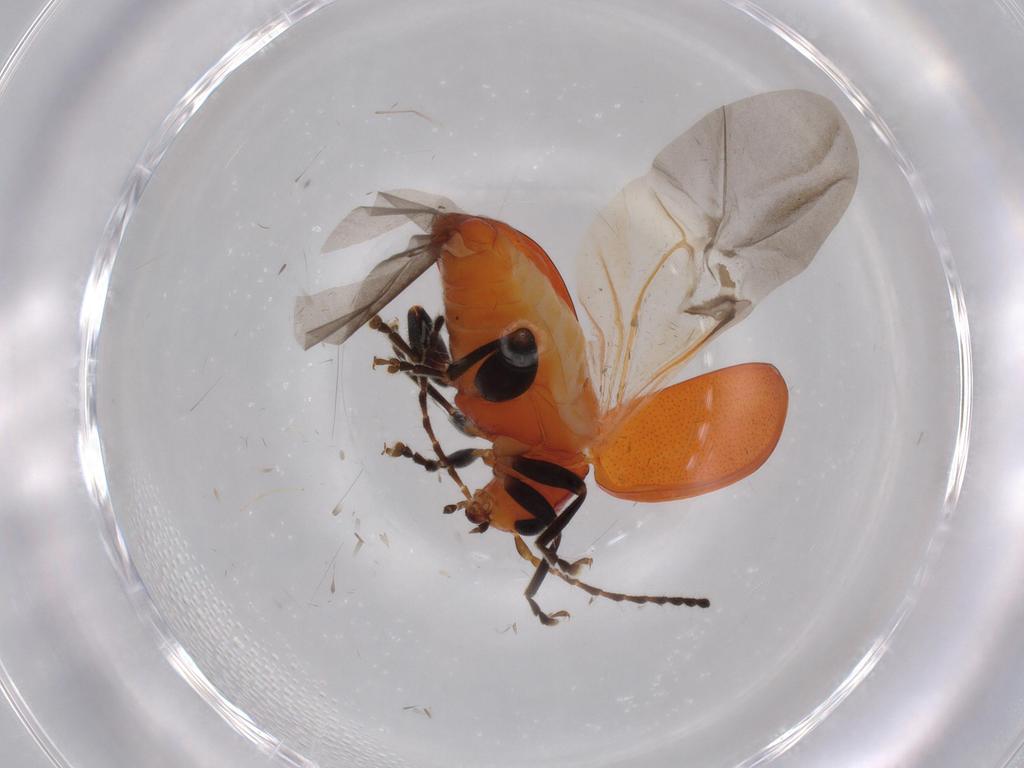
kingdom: Animalia
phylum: Arthropoda
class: Insecta
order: Coleoptera
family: Chrysomelidae
